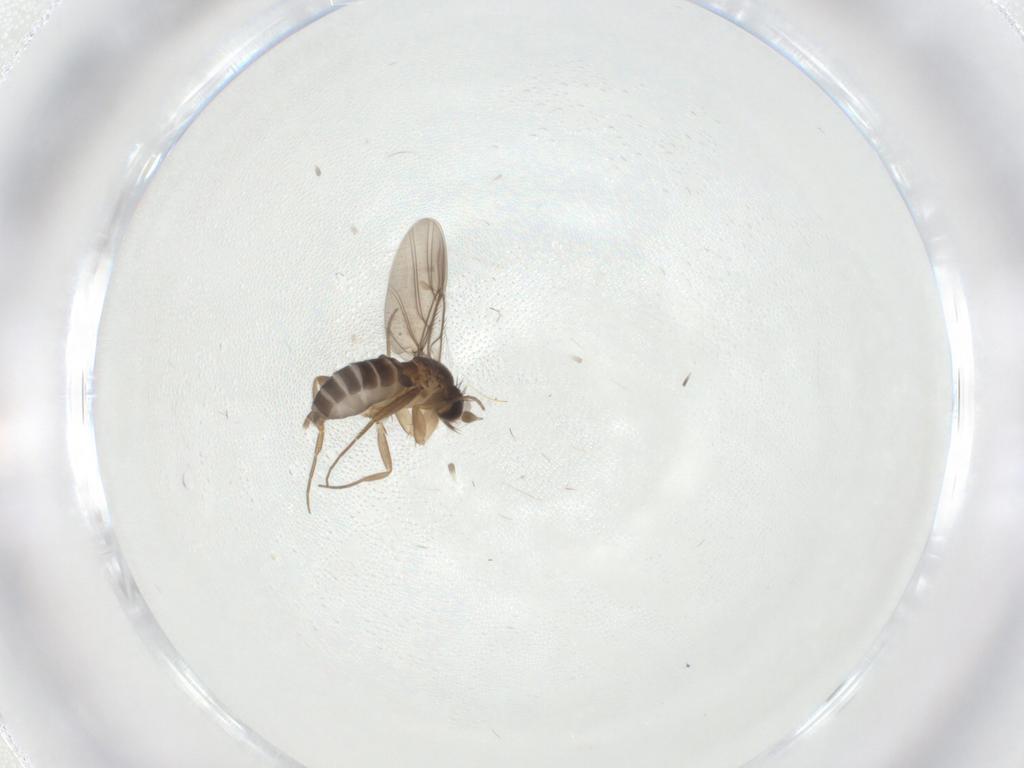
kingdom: Animalia
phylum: Arthropoda
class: Insecta
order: Diptera
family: Phoridae
